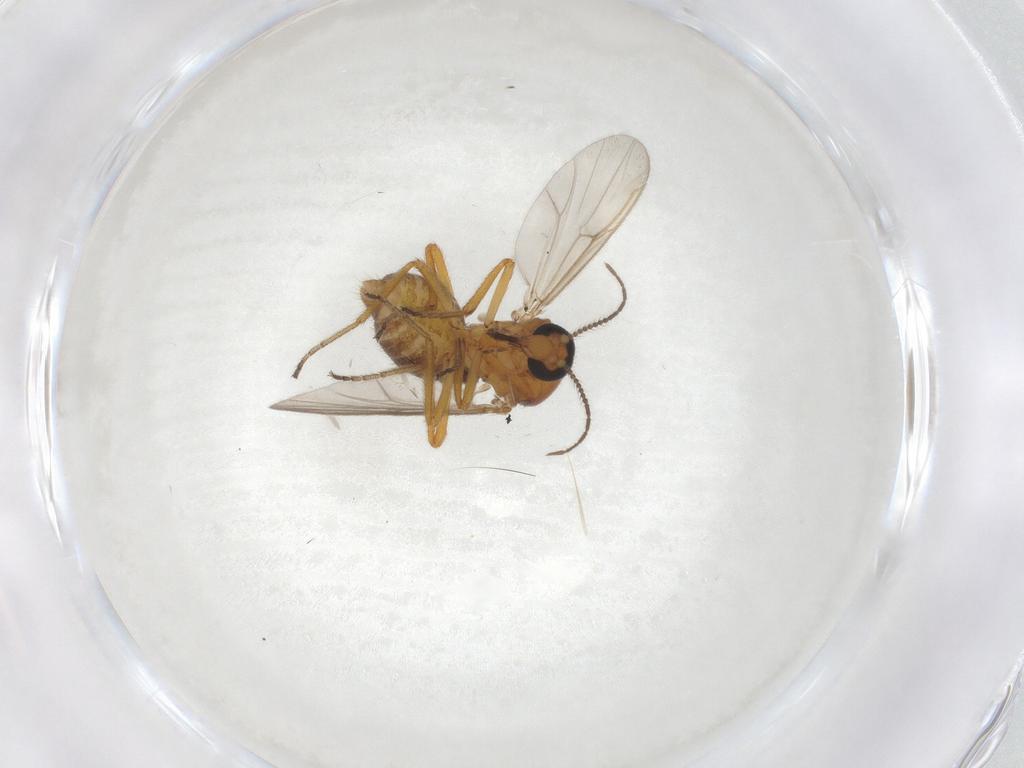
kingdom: Animalia
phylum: Arthropoda
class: Insecta
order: Diptera
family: Ceratopogonidae
